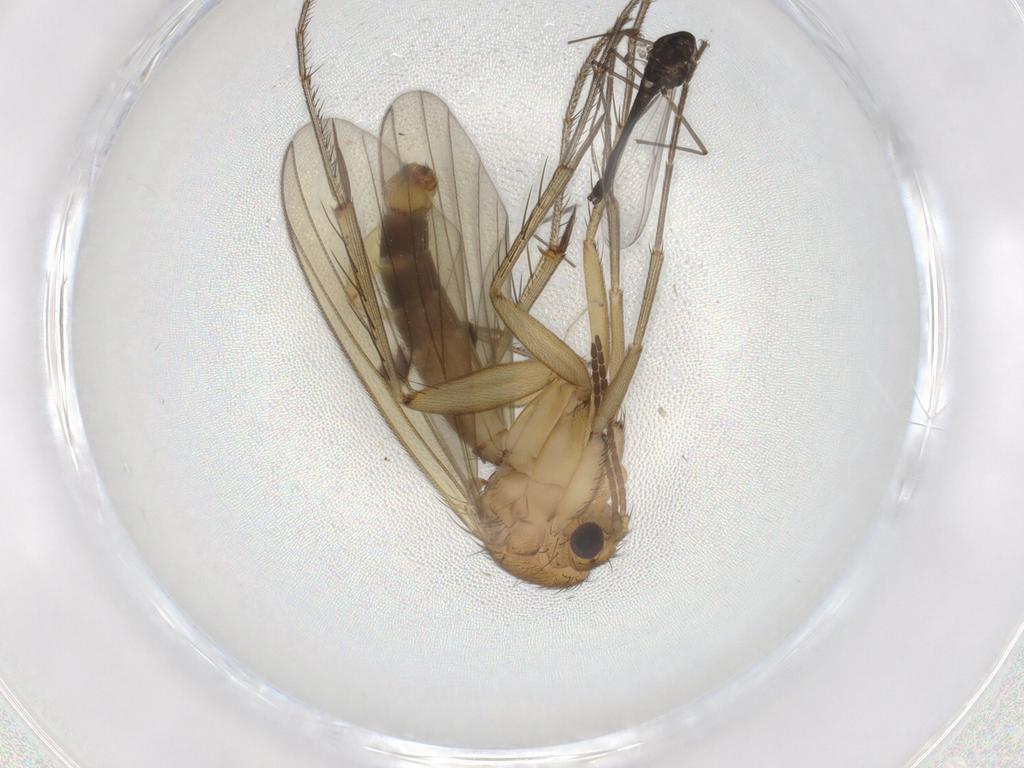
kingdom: Animalia
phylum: Arthropoda
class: Insecta
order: Diptera
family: Chironomidae
